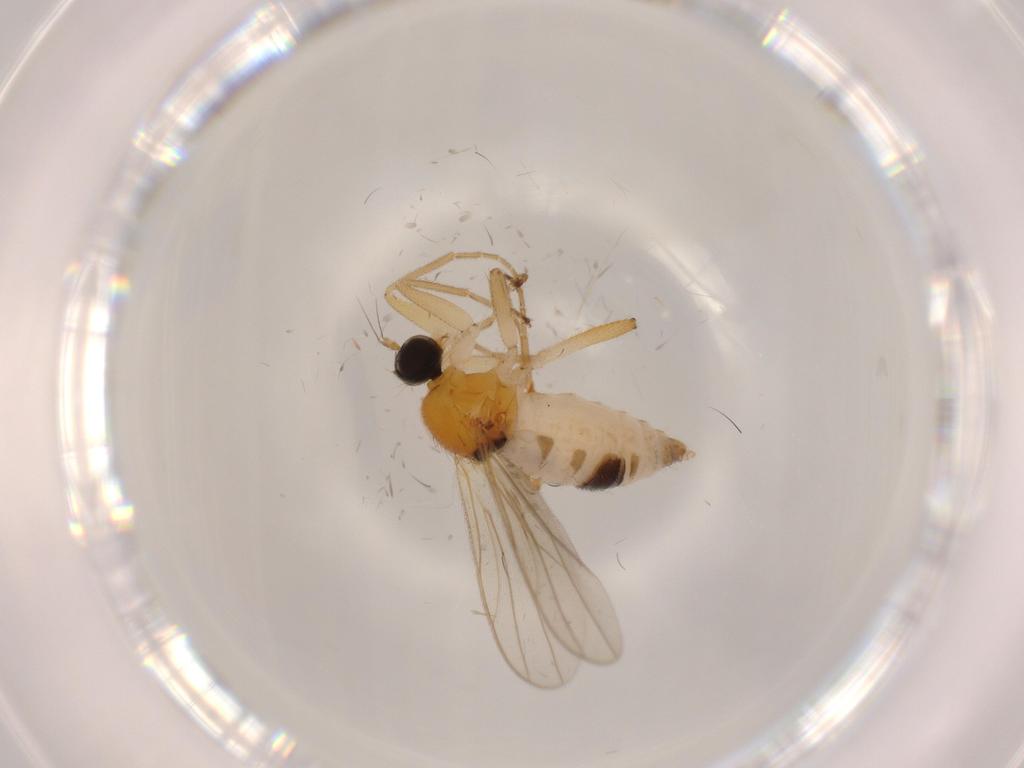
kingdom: Animalia
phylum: Arthropoda
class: Insecta
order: Diptera
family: Hybotidae
